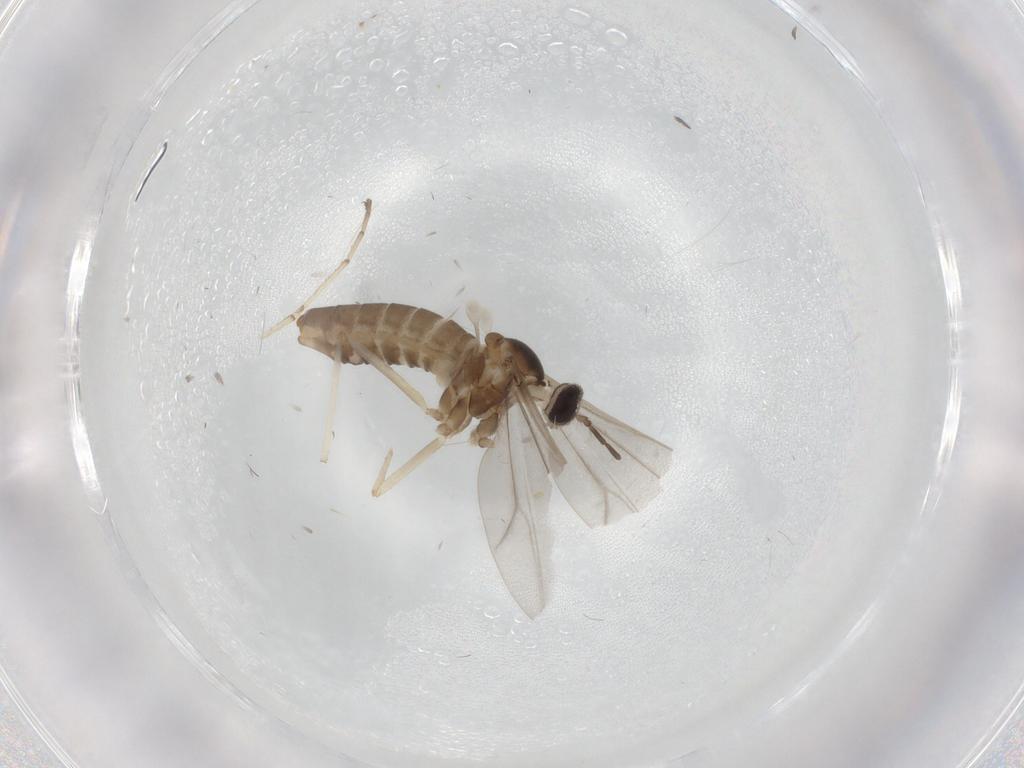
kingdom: Animalia
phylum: Arthropoda
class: Insecta
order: Diptera
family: Cecidomyiidae
